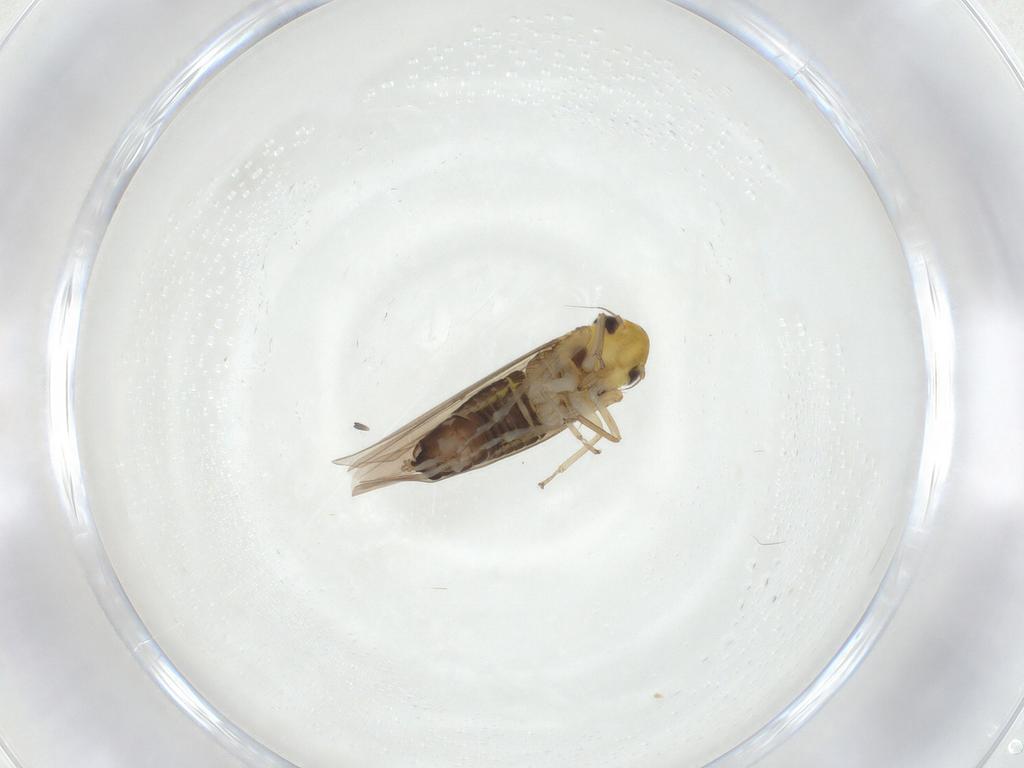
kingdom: Animalia
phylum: Arthropoda
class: Insecta
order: Hemiptera
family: Cicadellidae
